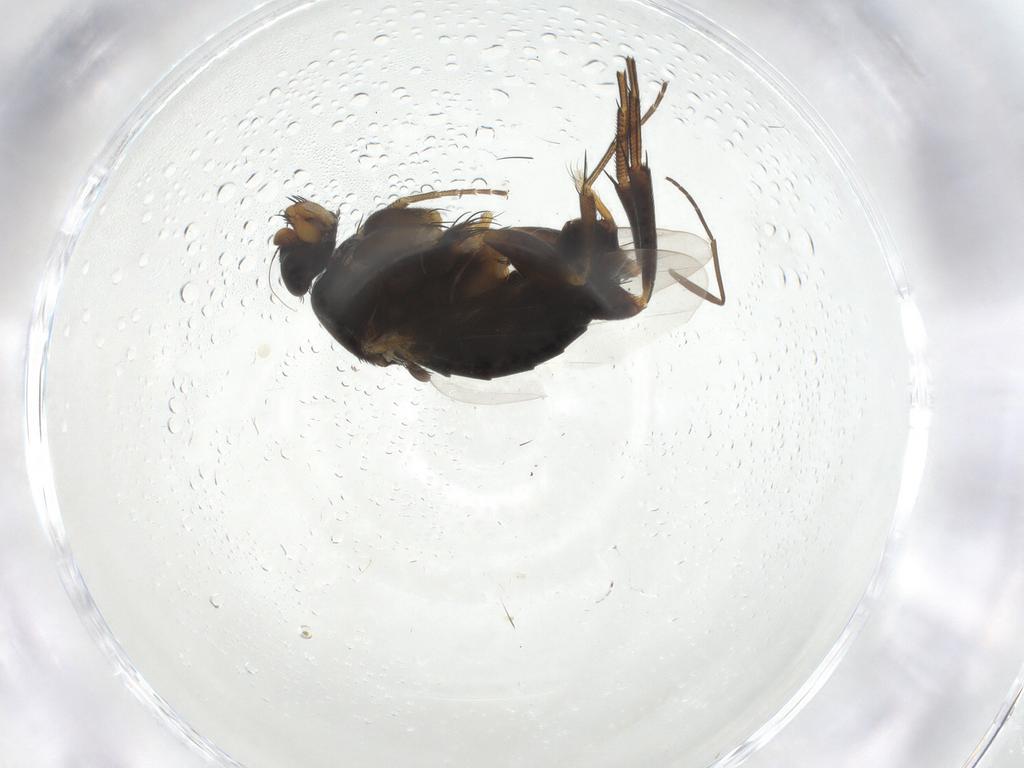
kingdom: Animalia
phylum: Arthropoda
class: Insecta
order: Diptera
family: Phoridae
